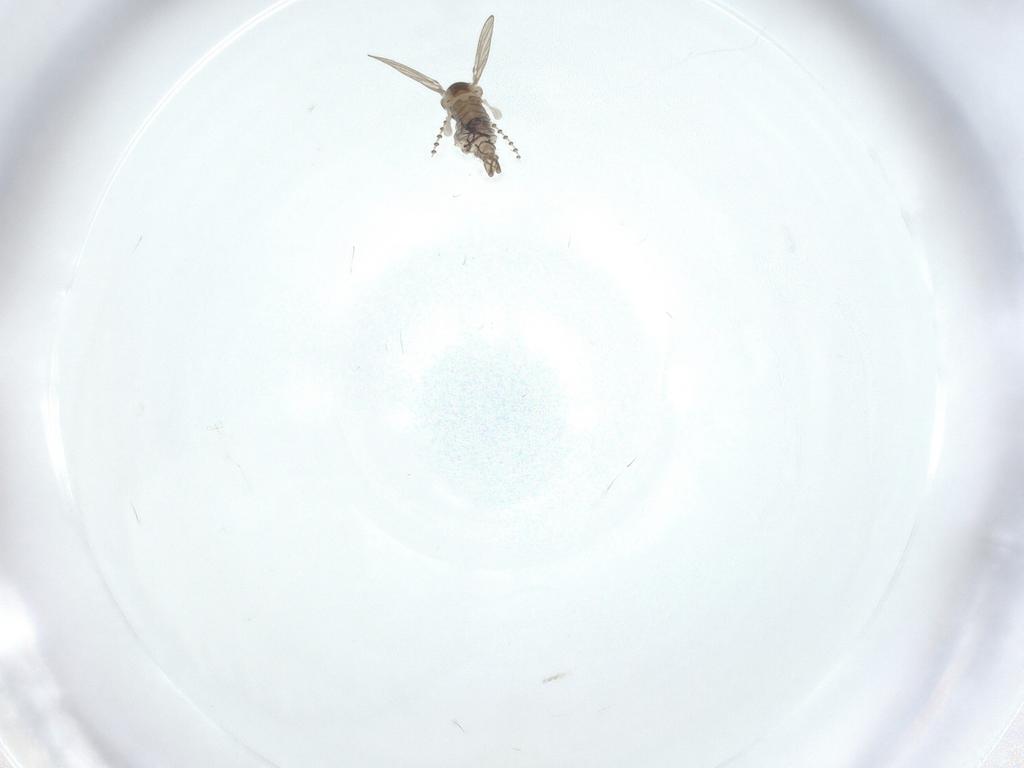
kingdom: Animalia
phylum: Arthropoda
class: Insecta
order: Diptera
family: Psychodidae
